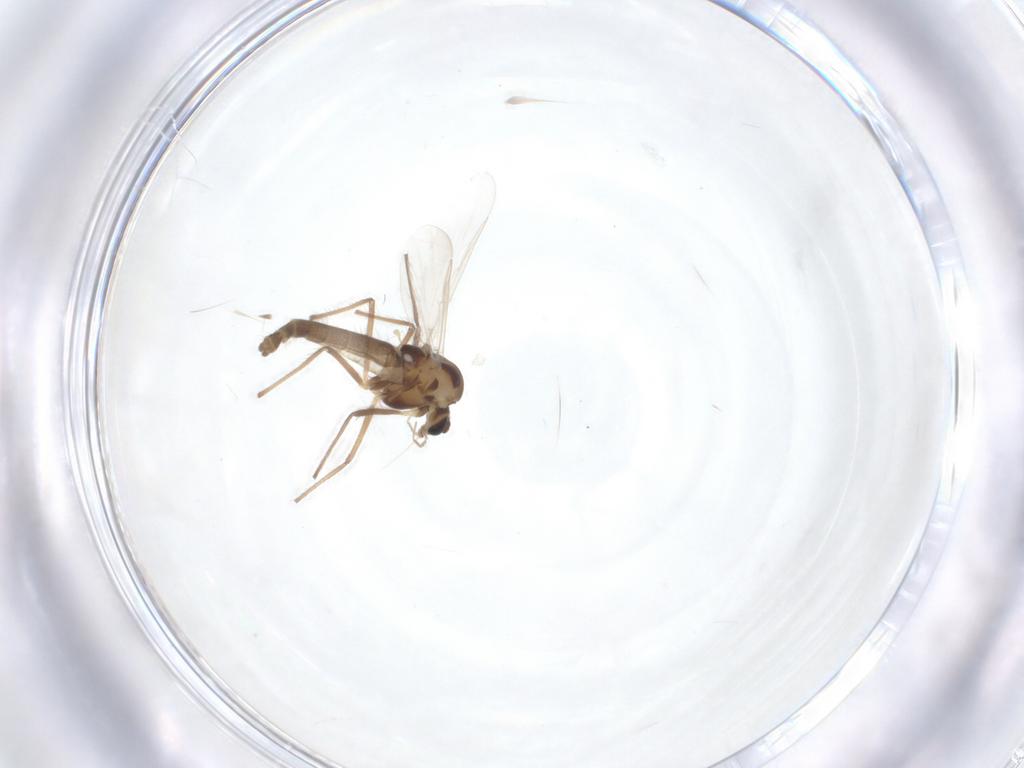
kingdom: Animalia
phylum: Arthropoda
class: Insecta
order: Diptera
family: Chironomidae
